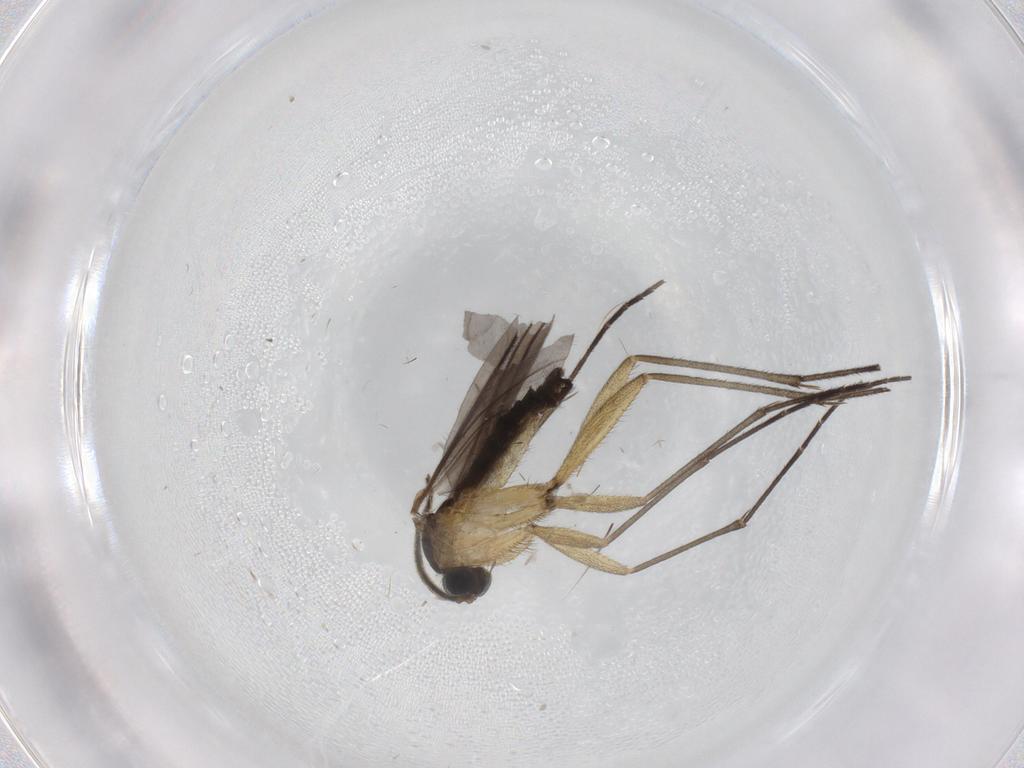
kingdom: Animalia
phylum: Arthropoda
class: Insecta
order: Diptera
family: Sciaridae
